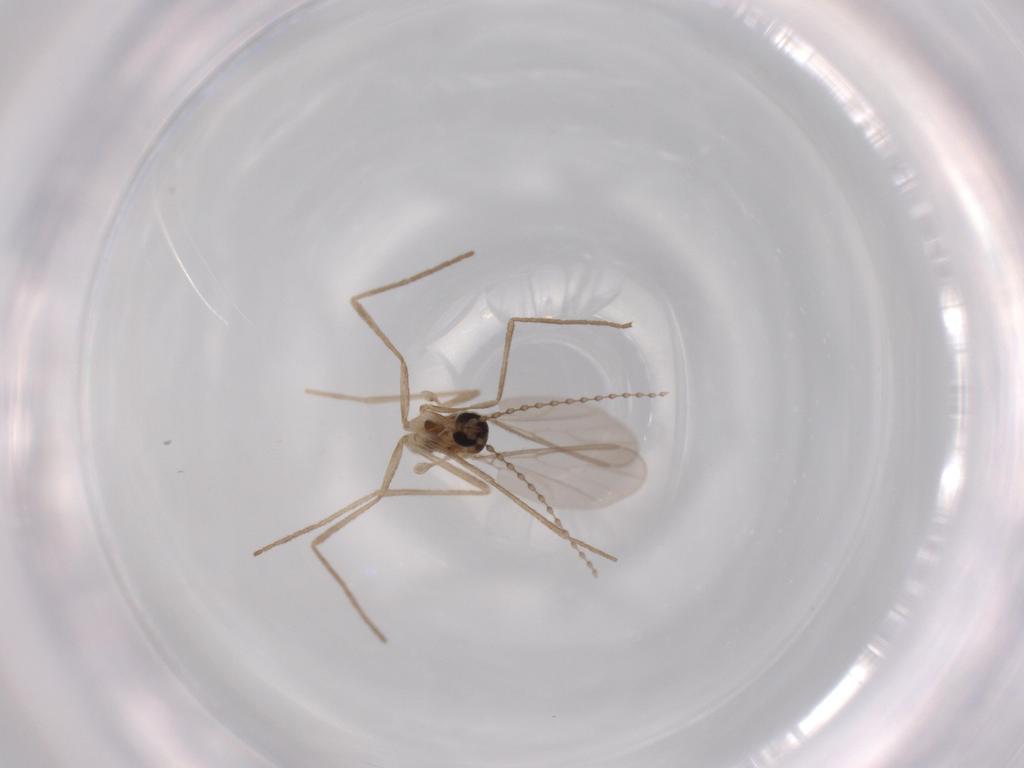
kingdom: Animalia
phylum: Arthropoda
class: Insecta
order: Diptera
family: Cecidomyiidae
